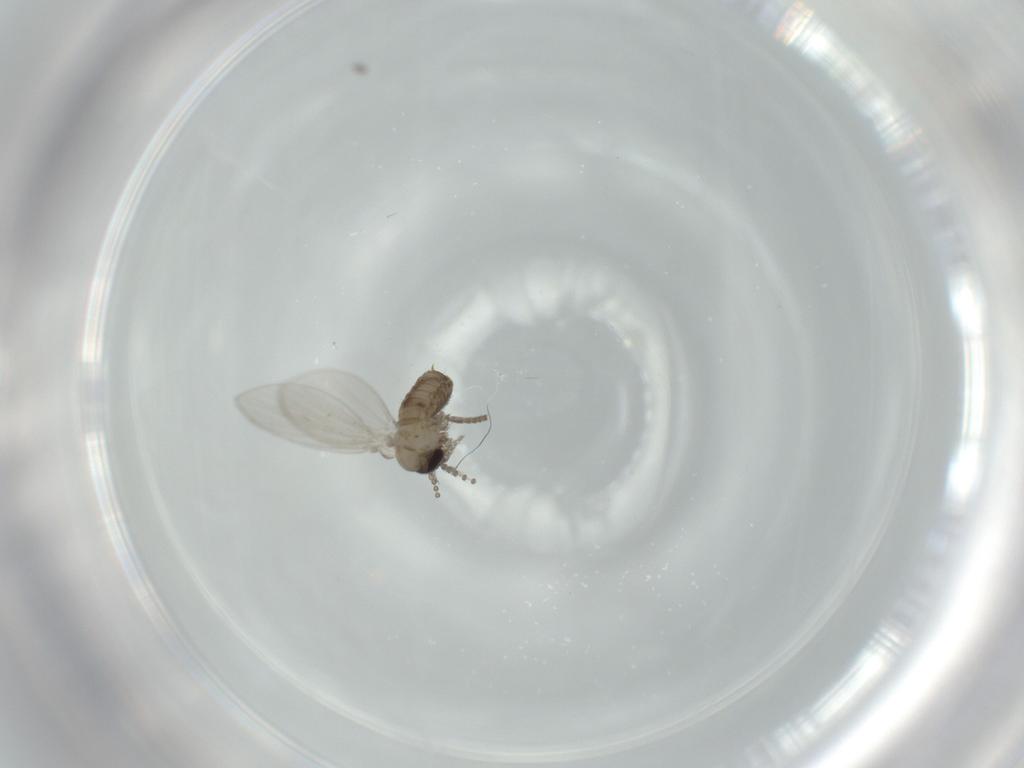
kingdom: Animalia
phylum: Arthropoda
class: Insecta
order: Diptera
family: Psychodidae
